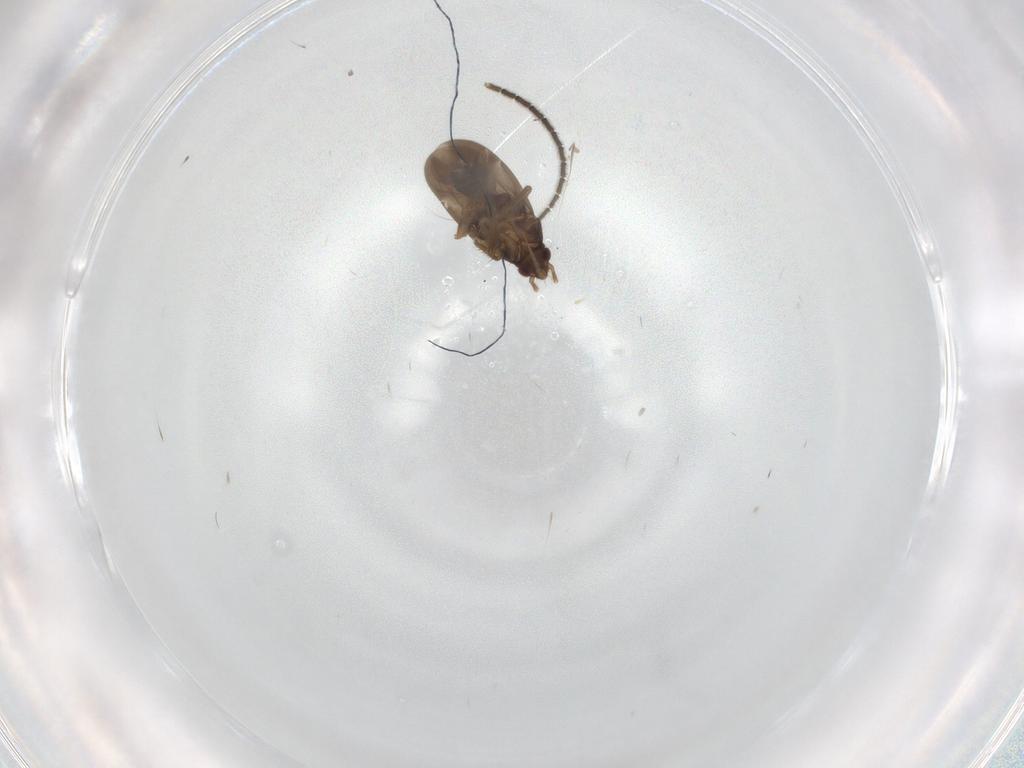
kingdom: Animalia
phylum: Arthropoda
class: Insecta
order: Hemiptera
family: Ceratocombidae
